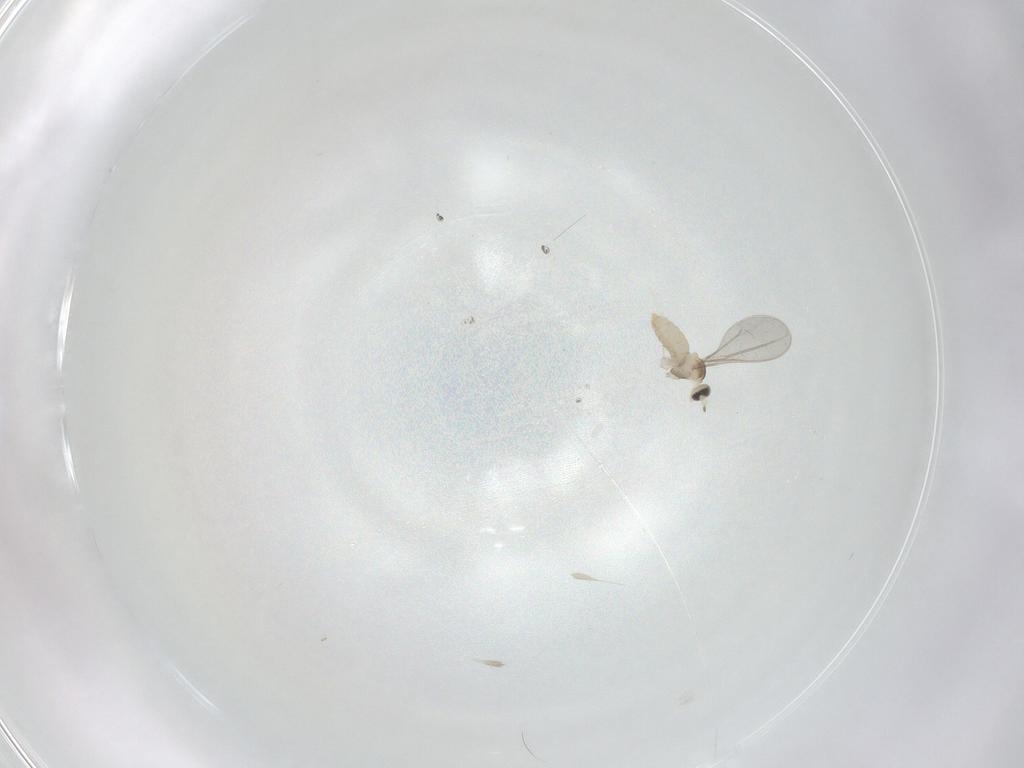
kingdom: Animalia
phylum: Arthropoda
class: Insecta
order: Diptera
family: Cecidomyiidae
